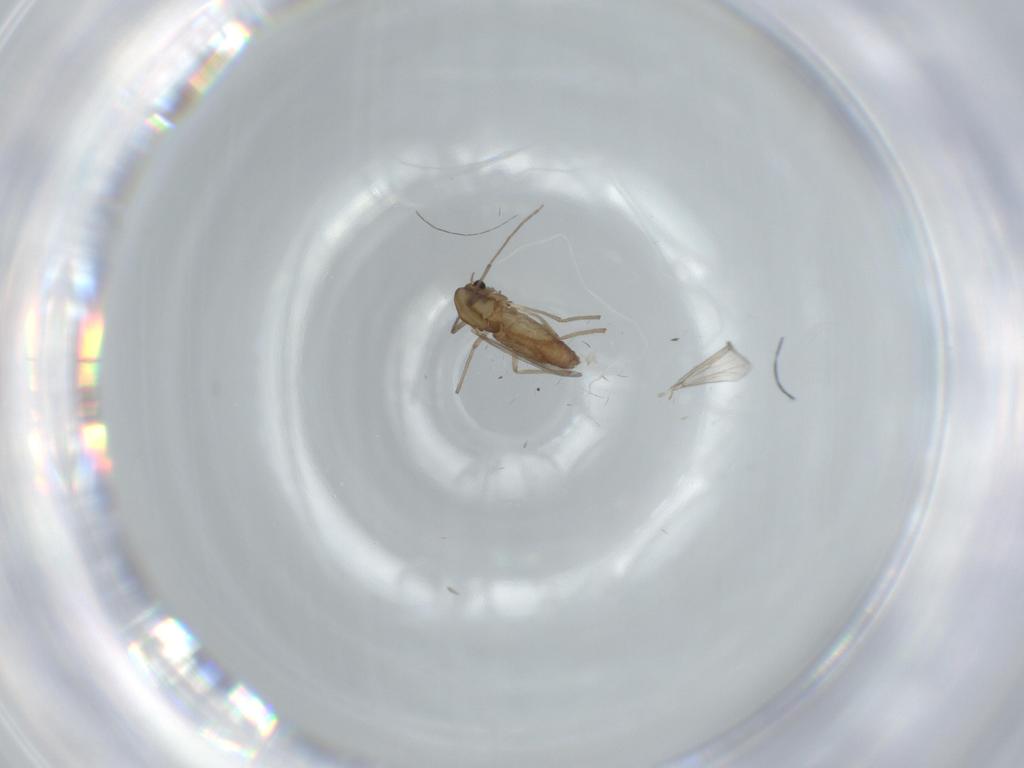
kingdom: Animalia
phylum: Arthropoda
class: Insecta
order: Diptera
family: Chironomidae
